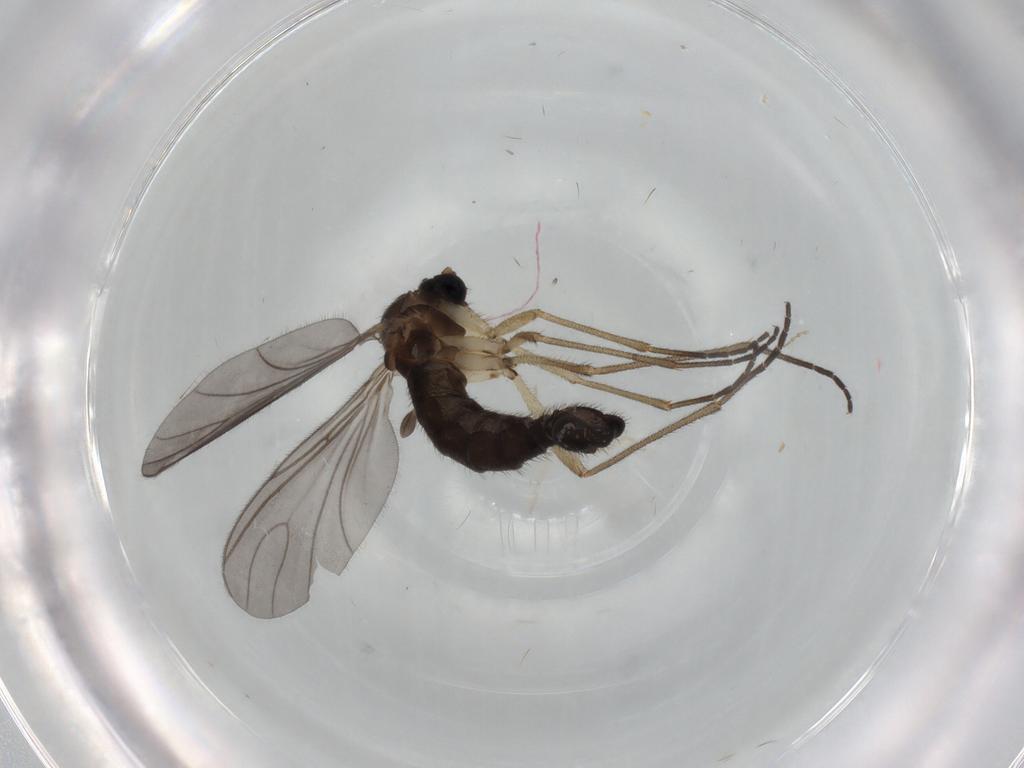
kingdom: Animalia
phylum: Arthropoda
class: Insecta
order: Diptera
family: Sciaridae
